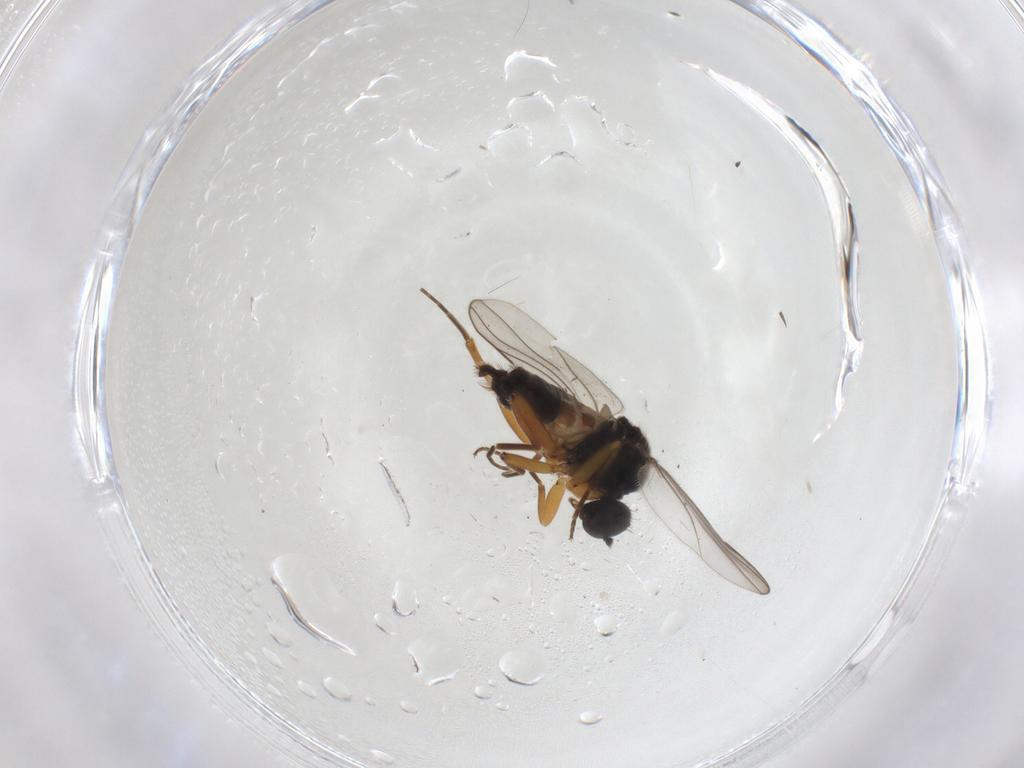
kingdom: Animalia
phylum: Arthropoda
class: Insecta
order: Diptera
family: Hybotidae
